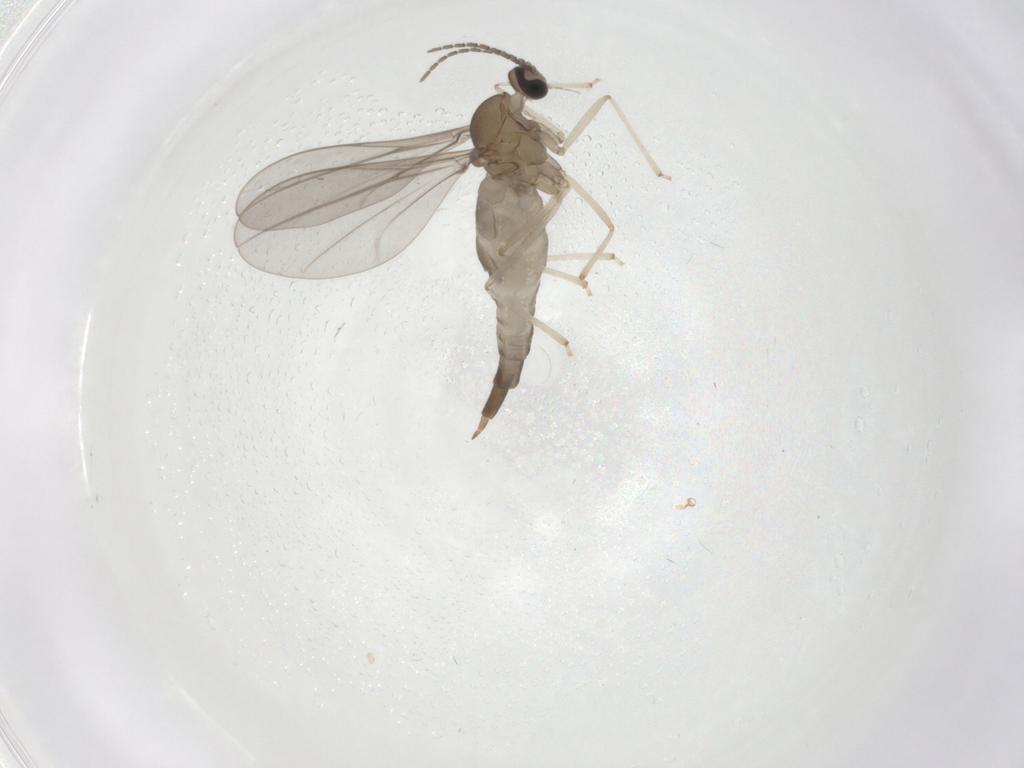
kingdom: Animalia
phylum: Arthropoda
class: Insecta
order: Diptera
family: Cecidomyiidae
